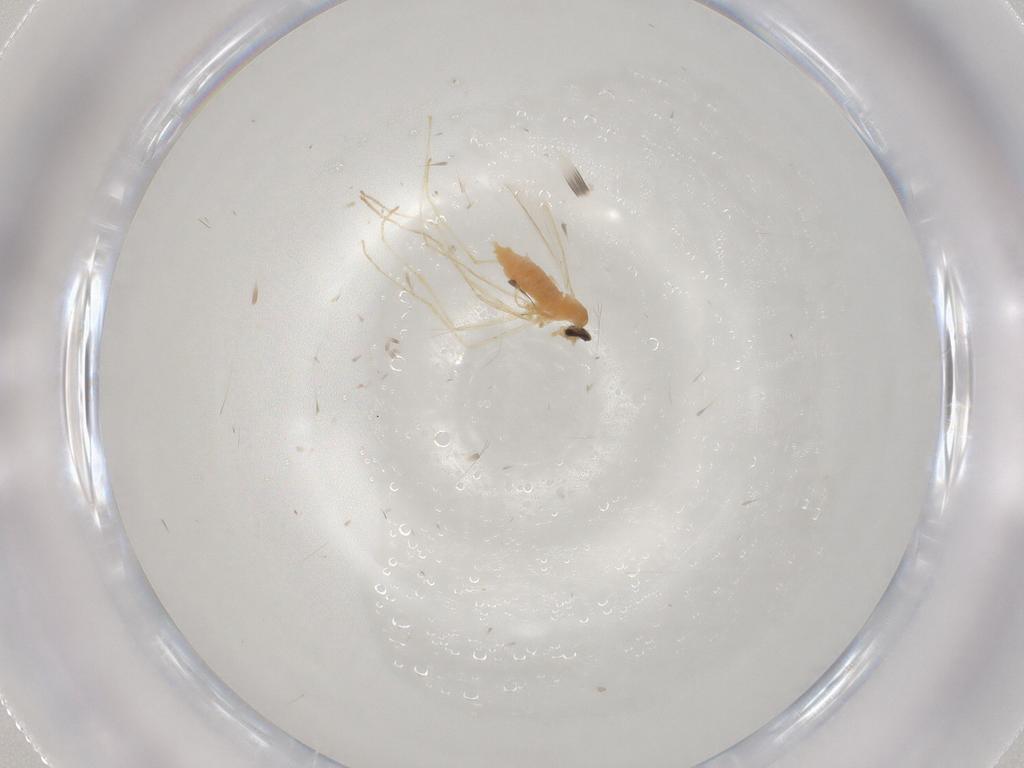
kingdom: Animalia
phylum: Arthropoda
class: Insecta
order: Diptera
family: Cecidomyiidae
